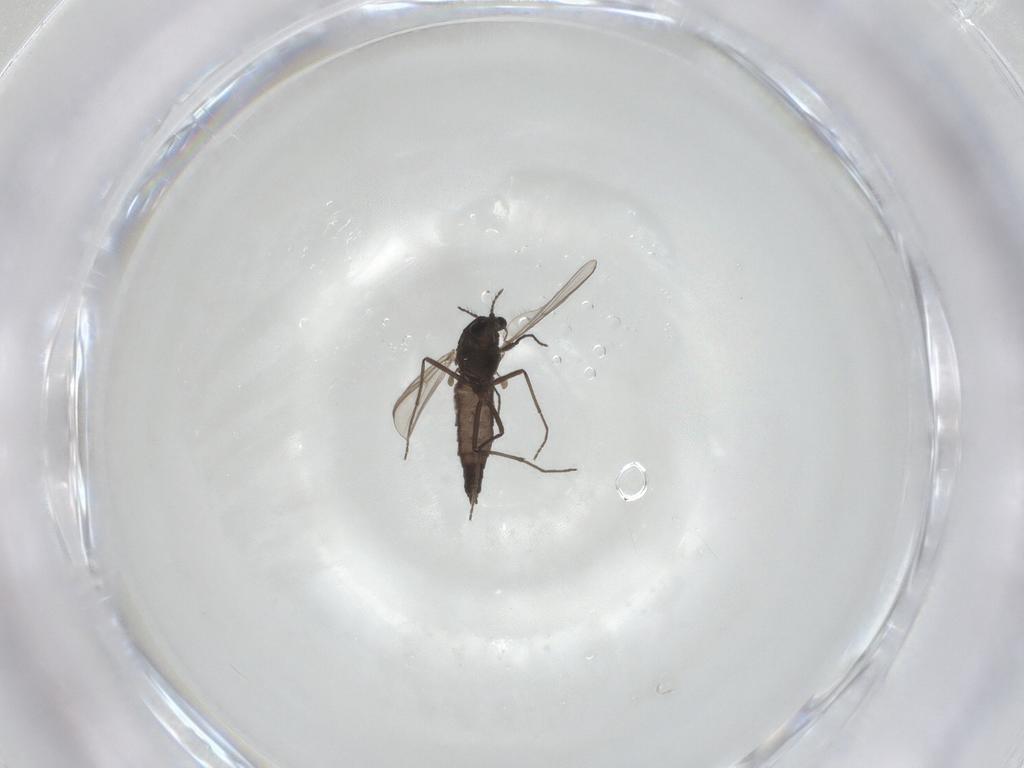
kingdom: Animalia
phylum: Arthropoda
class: Insecta
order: Diptera
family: Chironomidae
